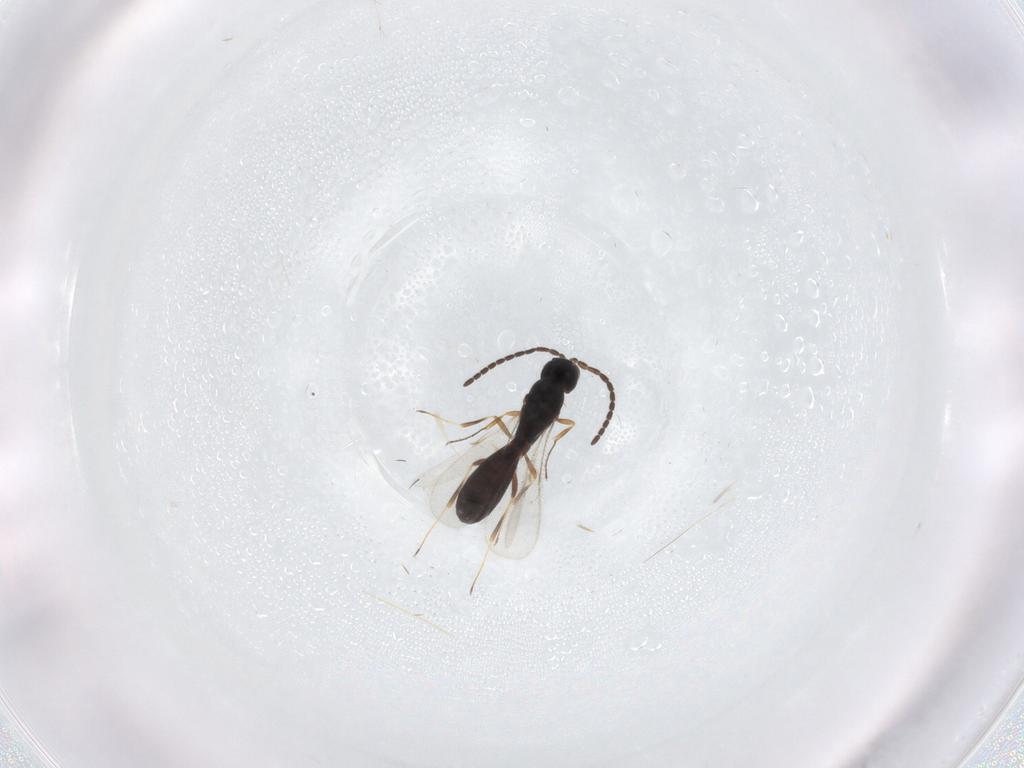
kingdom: Animalia
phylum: Arthropoda
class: Insecta
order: Hymenoptera
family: Scelionidae
